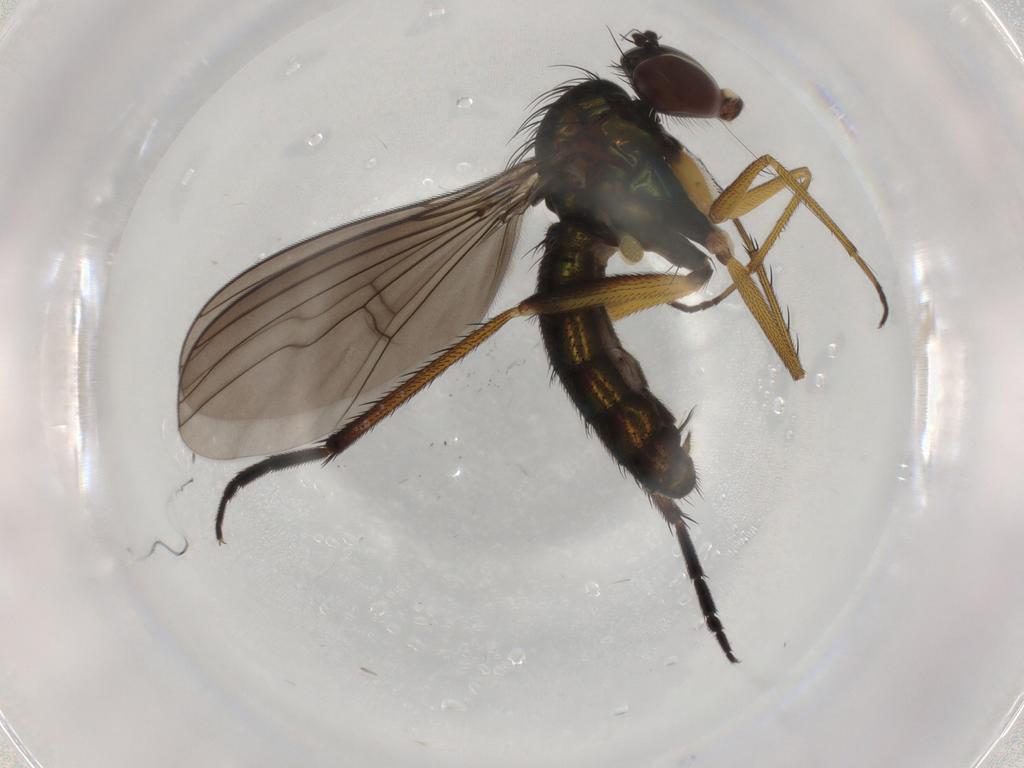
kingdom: Animalia
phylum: Arthropoda
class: Insecta
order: Diptera
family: Dolichopodidae
